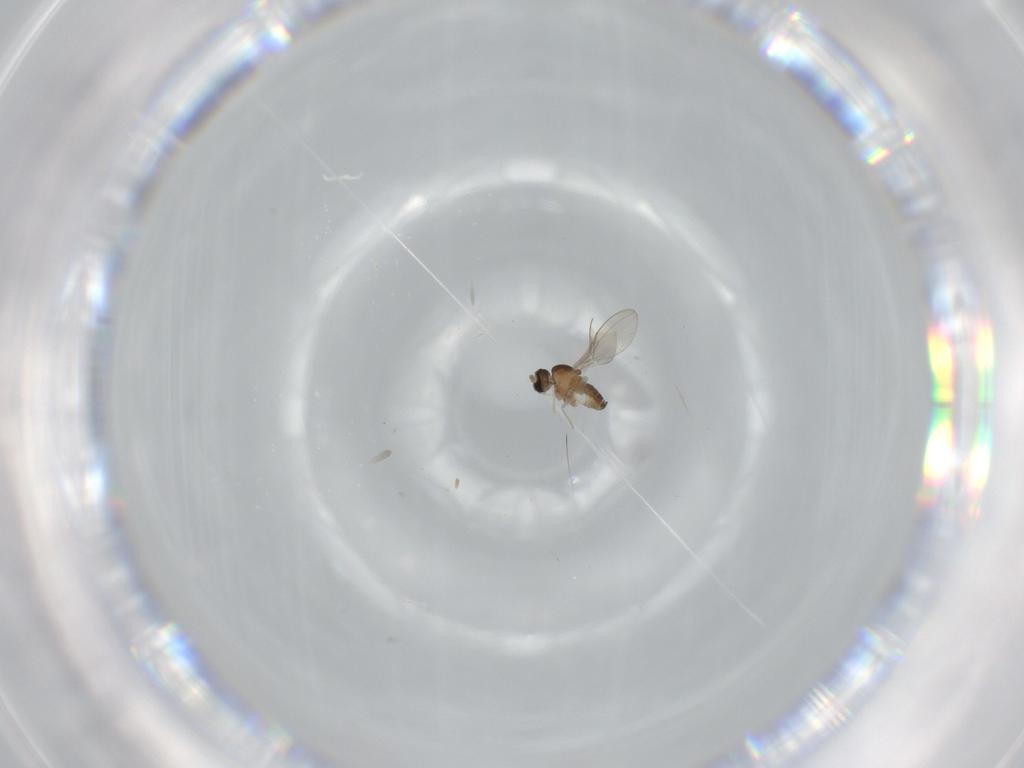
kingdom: Animalia
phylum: Arthropoda
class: Insecta
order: Diptera
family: Cecidomyiidae
